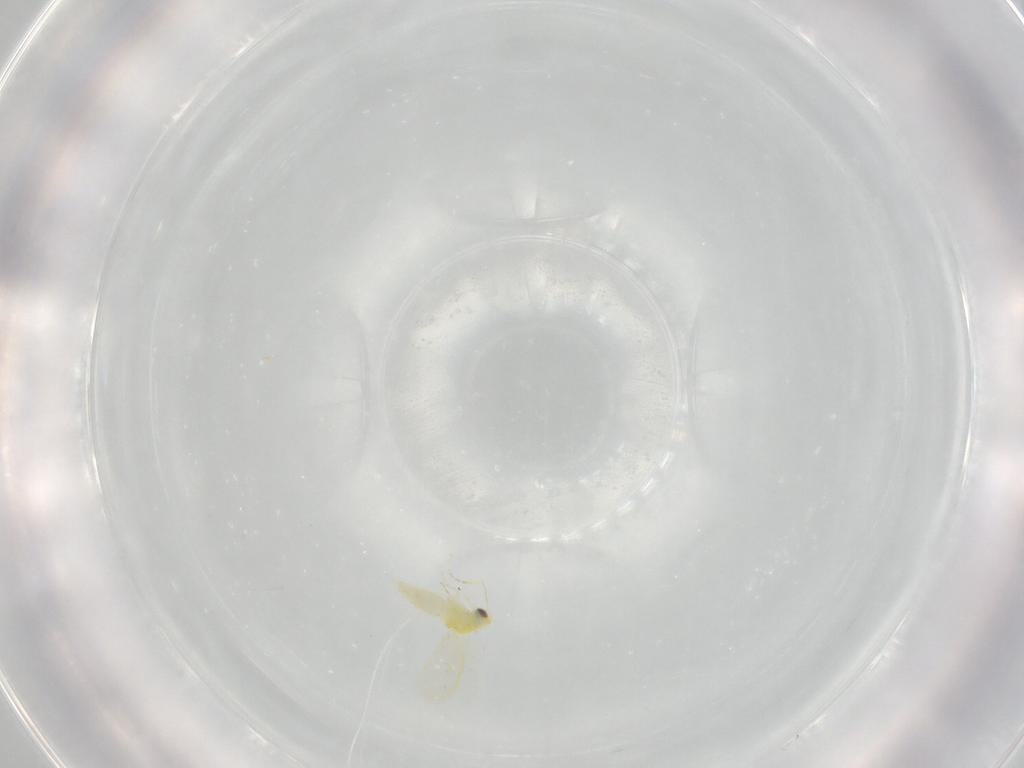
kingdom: Animalia
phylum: Arthropoda
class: Insecta
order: Hemiptera
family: Aleyrodidae
